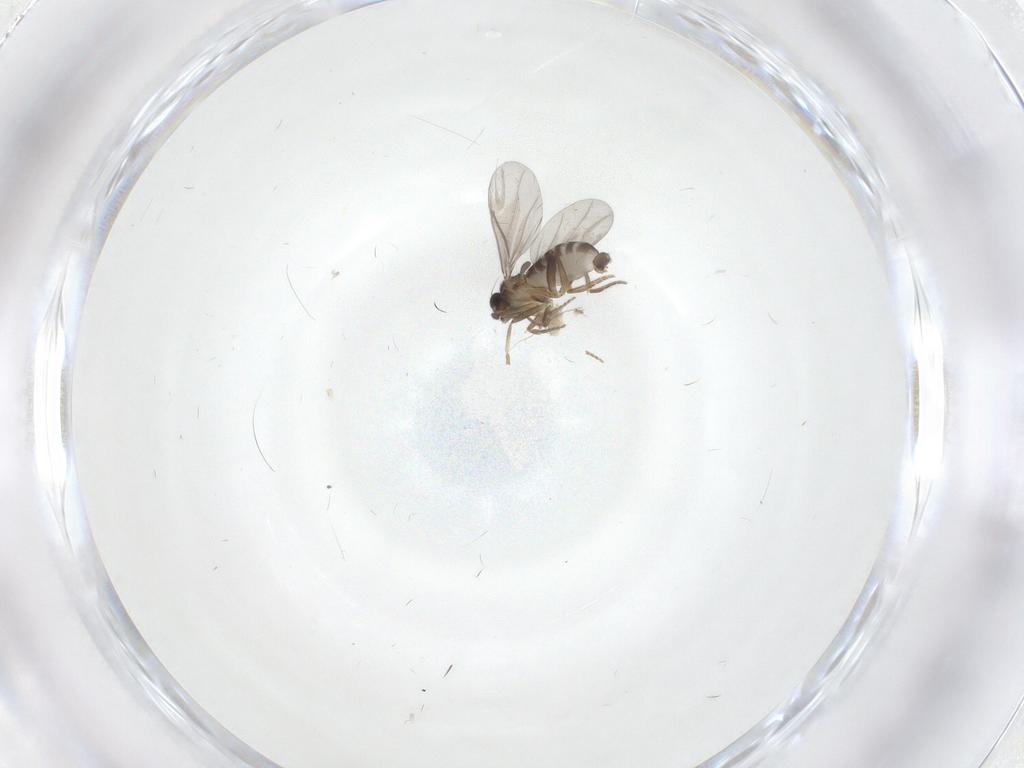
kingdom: Animalia
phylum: Arthropoda
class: Insecta
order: Diptera
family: Phoridae
